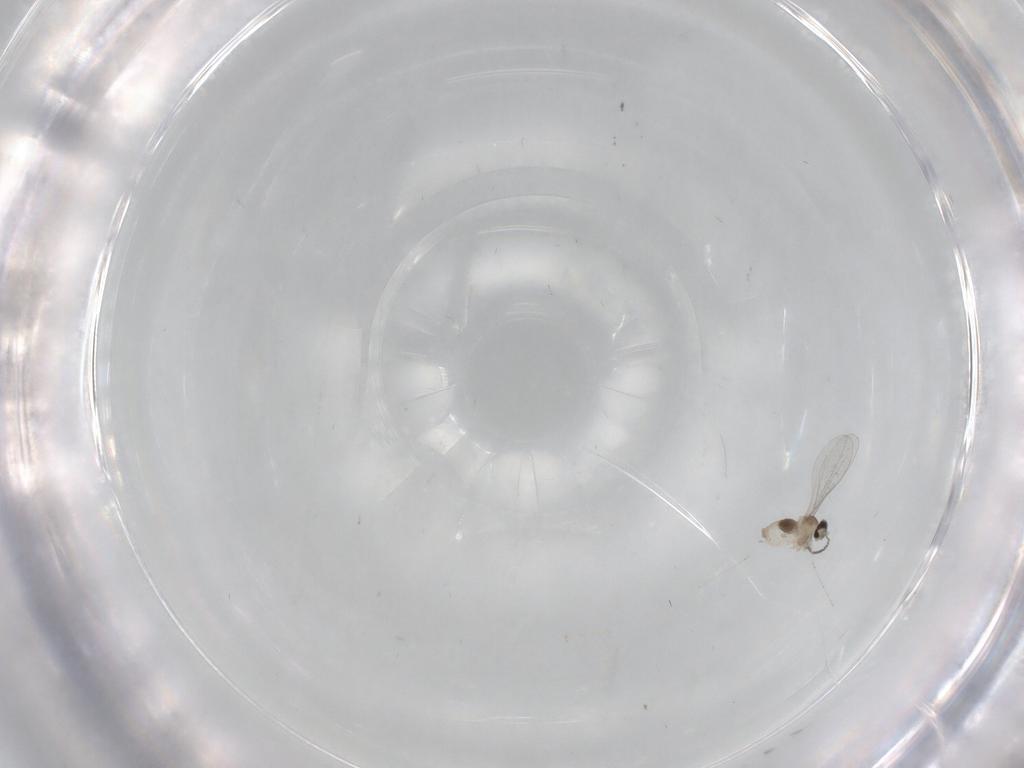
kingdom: Animalia
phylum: Arthropoda
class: Insecta
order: Diptera
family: Cecidomyiidae
